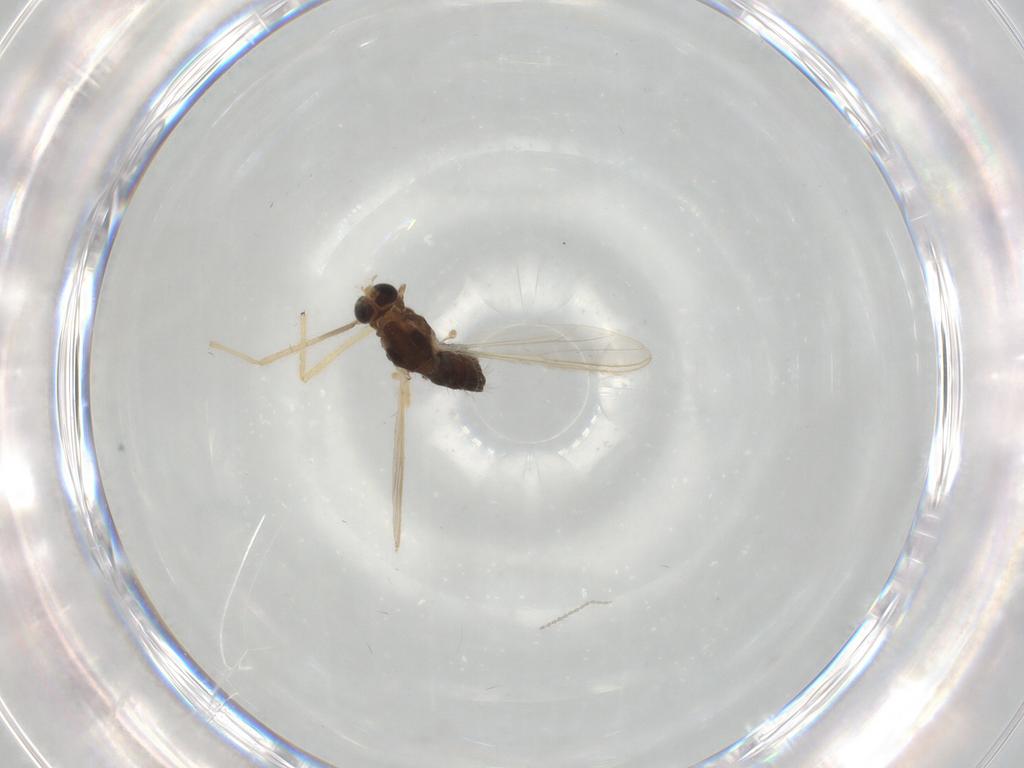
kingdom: Animalia
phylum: Arthropoda
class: Insecta
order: Diptera
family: Chironomidae
